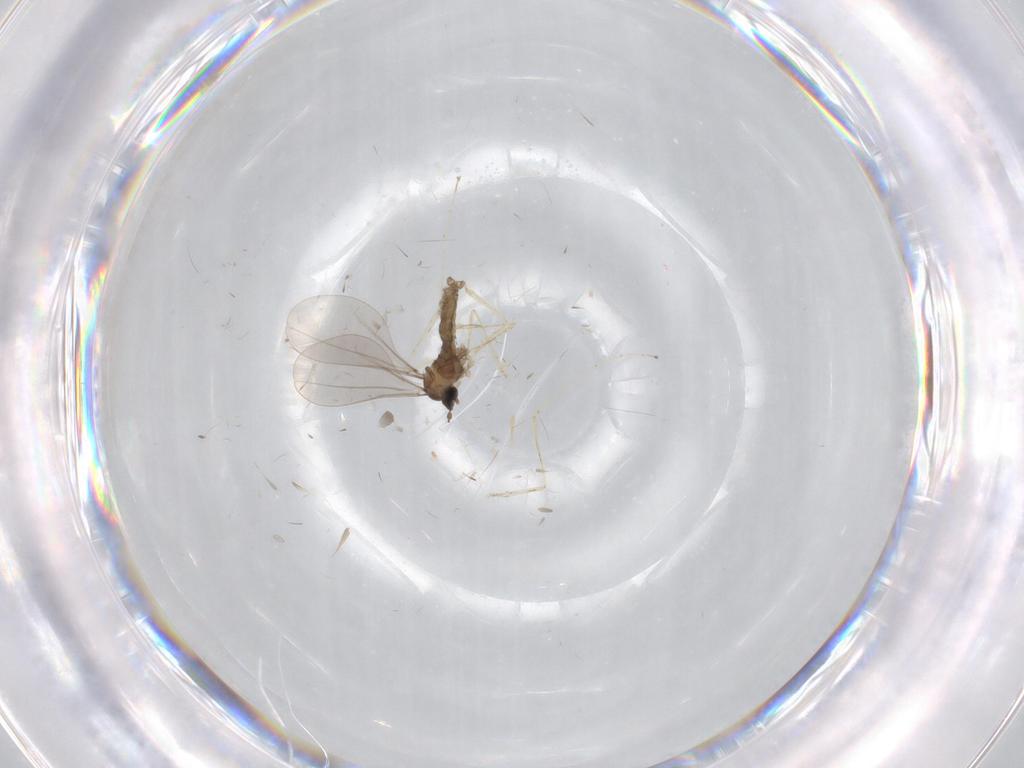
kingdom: Animalia
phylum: Arthropoda
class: Insecta
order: Diptera
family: Cecidomyiidae
